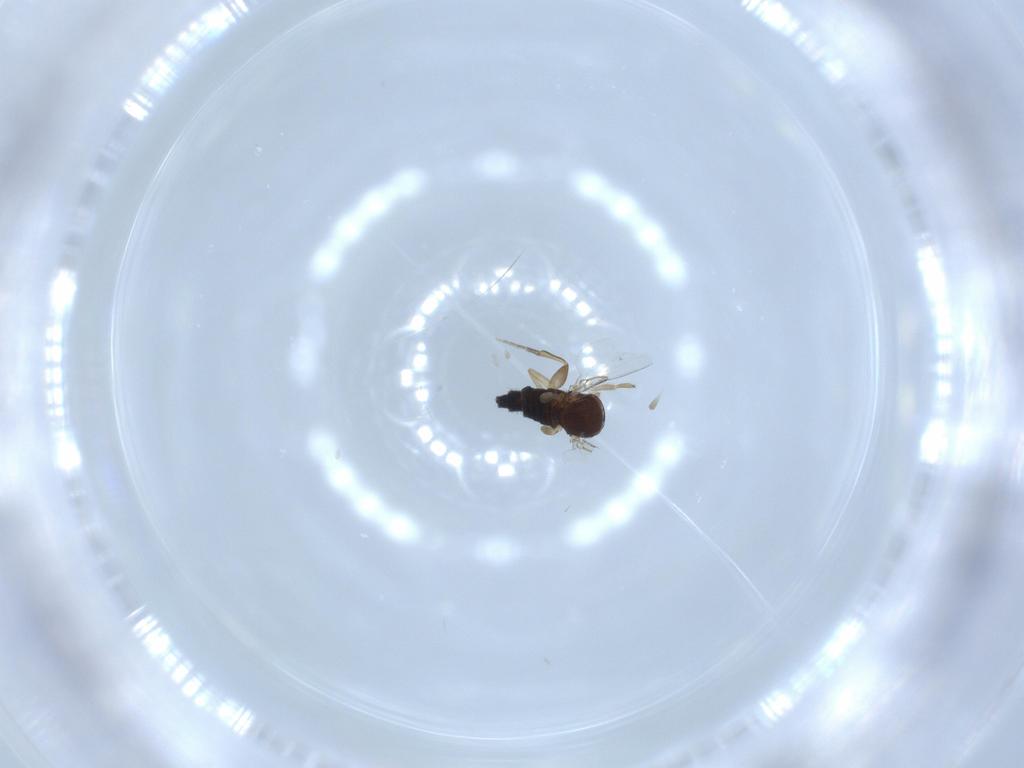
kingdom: Animalia
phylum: Arthropoda
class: Insecta
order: Diptera
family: Phoridae
